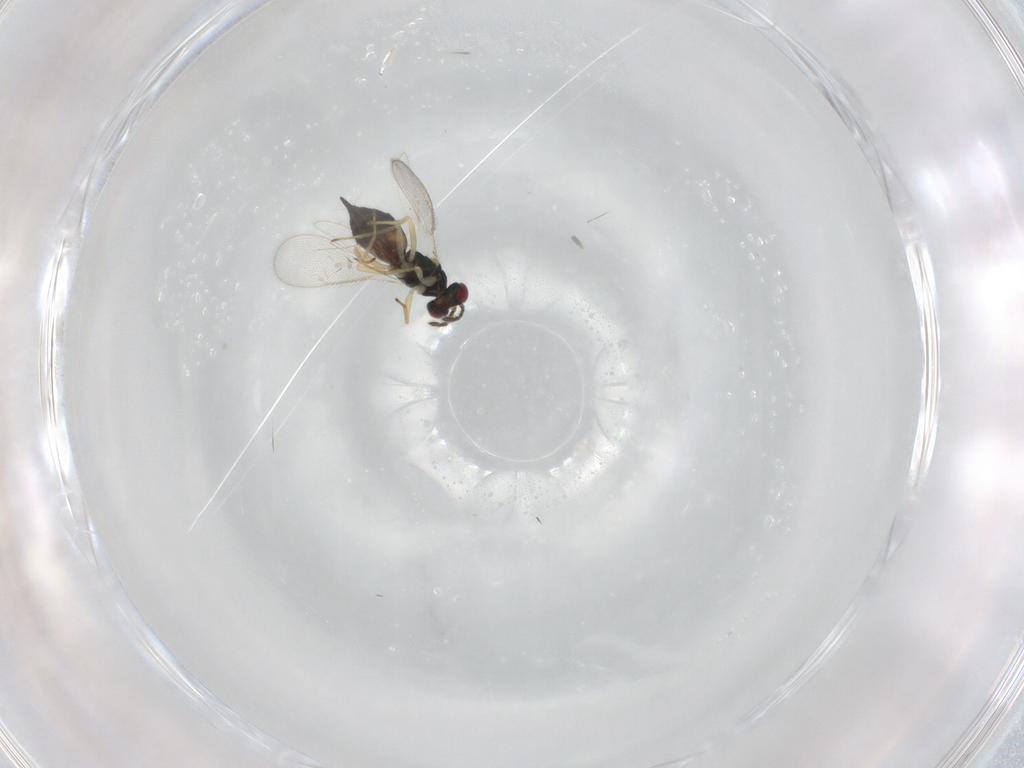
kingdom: Animalia
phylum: Arthropoda
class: Insecta
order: Hymenoptera
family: Eulophidae
